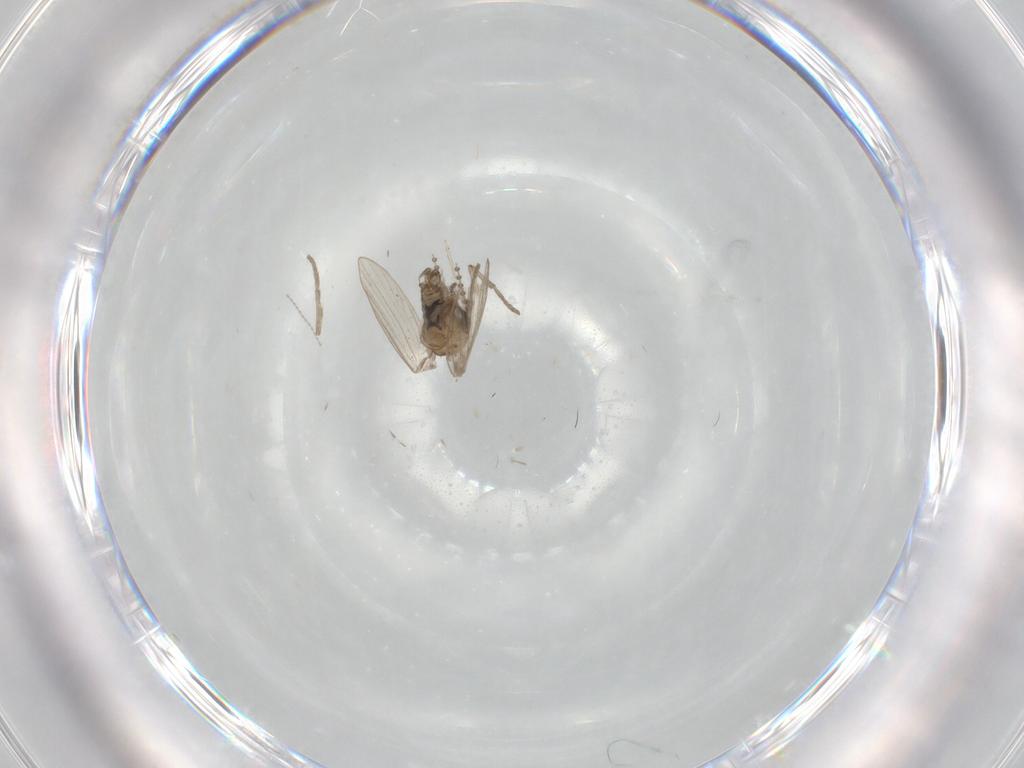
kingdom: Animalia
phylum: Arthropoda
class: Insecta
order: Diptera
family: Psychodidae
